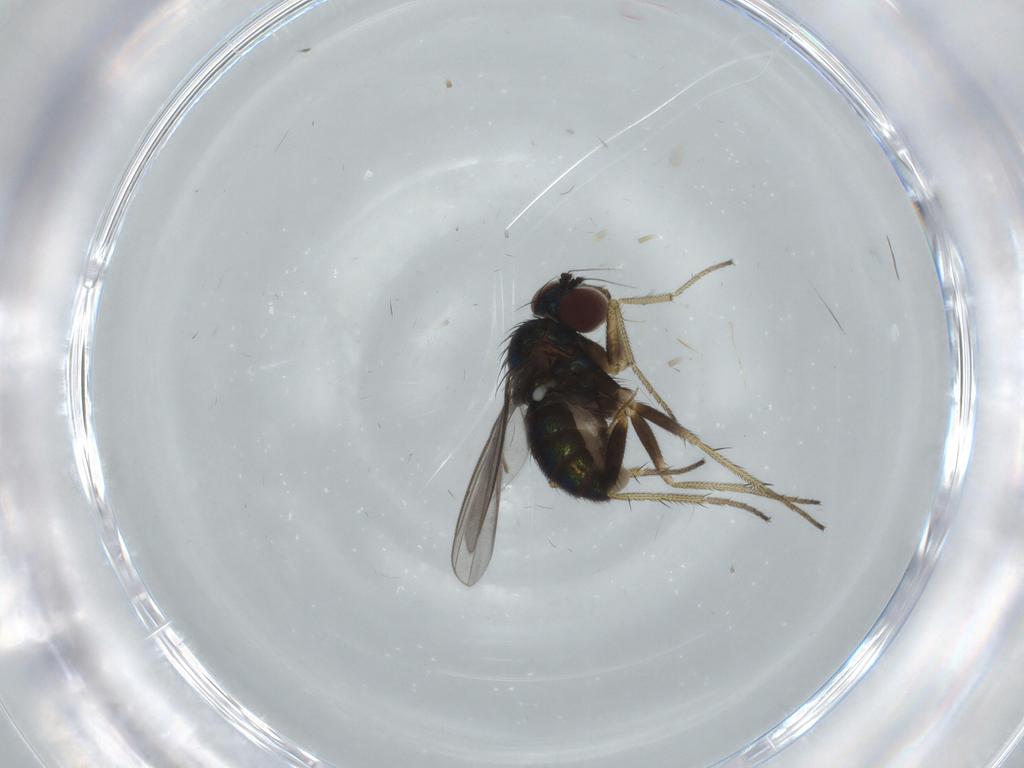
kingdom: Animalia
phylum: Arthropoda
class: Insecta
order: Diptera
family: Dolichopodidae
